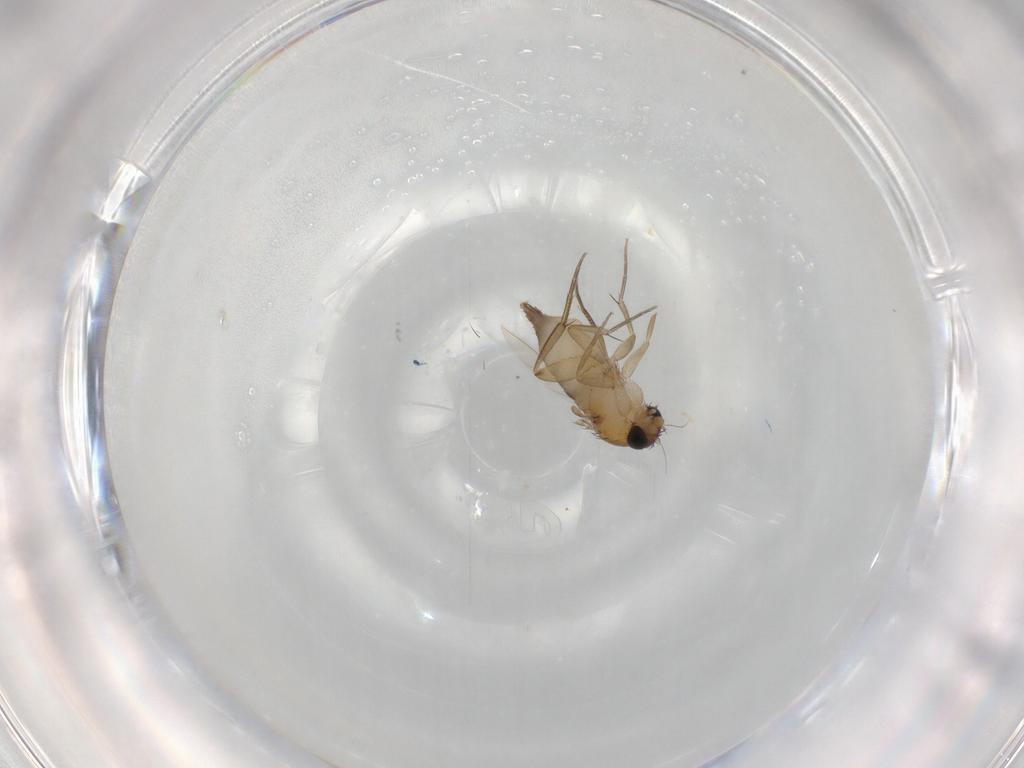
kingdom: Animalia
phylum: Arthropoda
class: Insecta
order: Diptera
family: Phoridae
